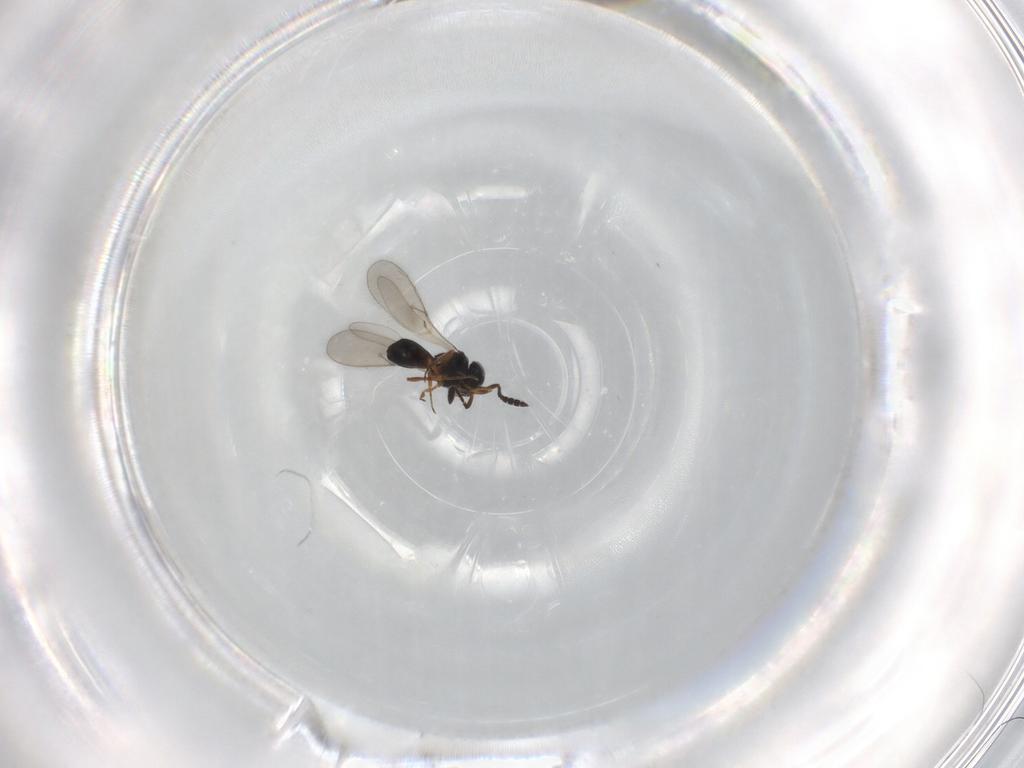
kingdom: Animalia
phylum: Arthropoda
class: Insecta
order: Hymenoptera
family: Scelionidae
